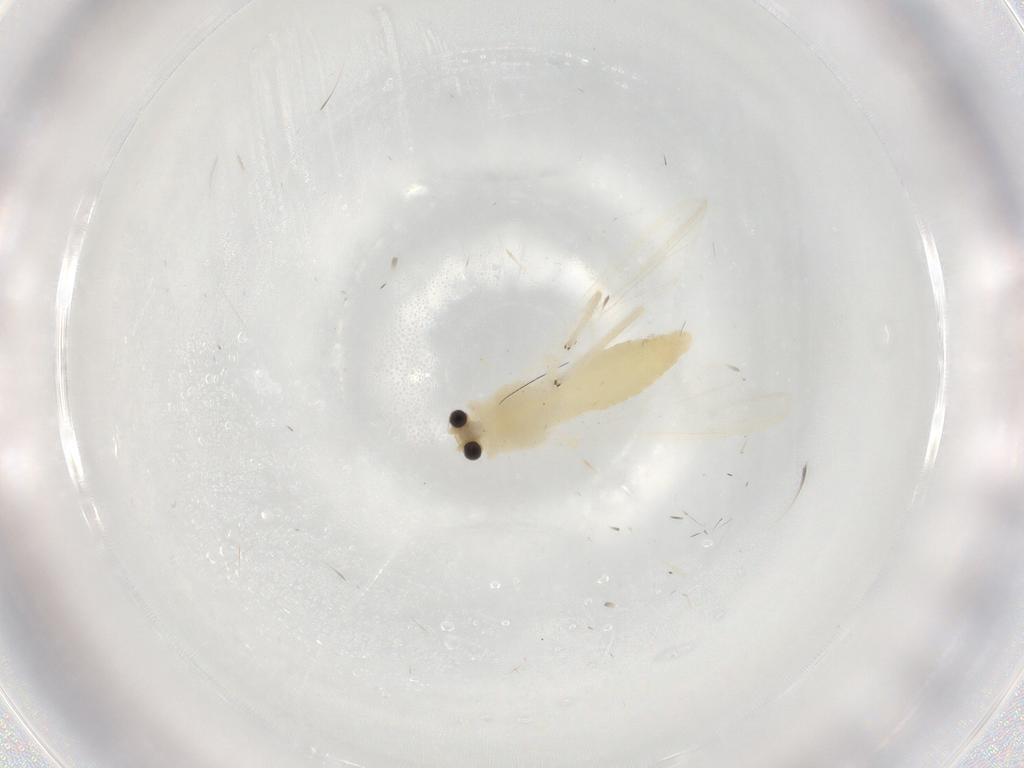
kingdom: Animalia
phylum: Arthropoda
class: Insecta
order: Diptera
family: Chironomidae
